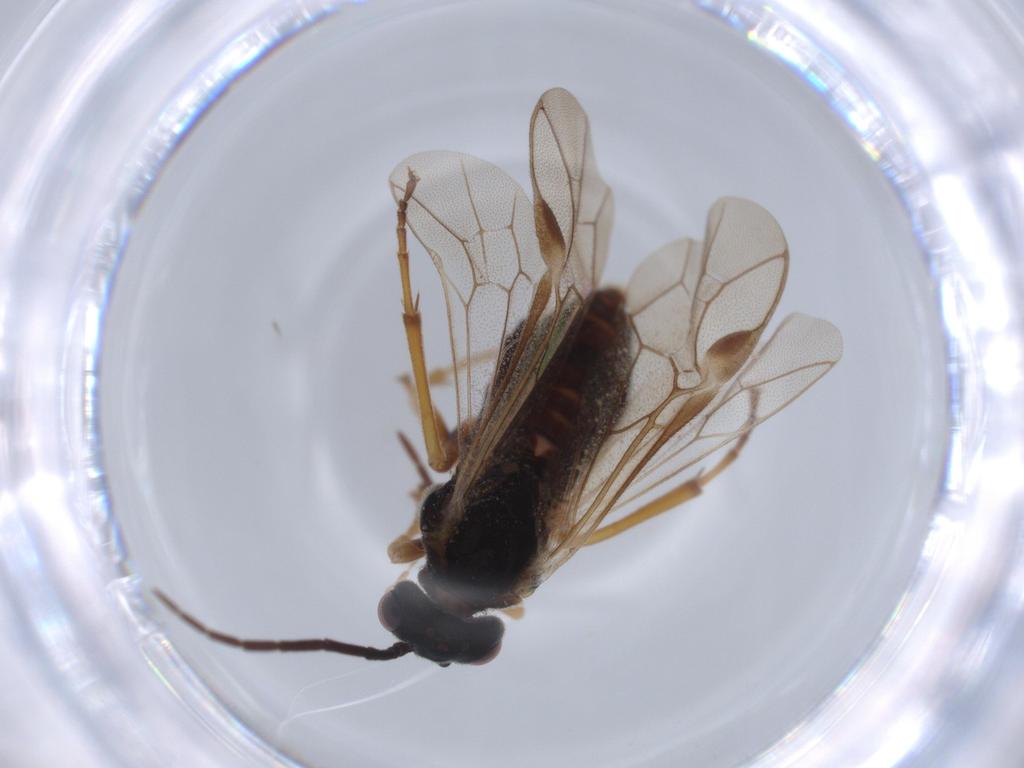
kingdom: Animalia
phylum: Arthropoda
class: Insecta
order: Hymenoptera
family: Tenthredinidae
